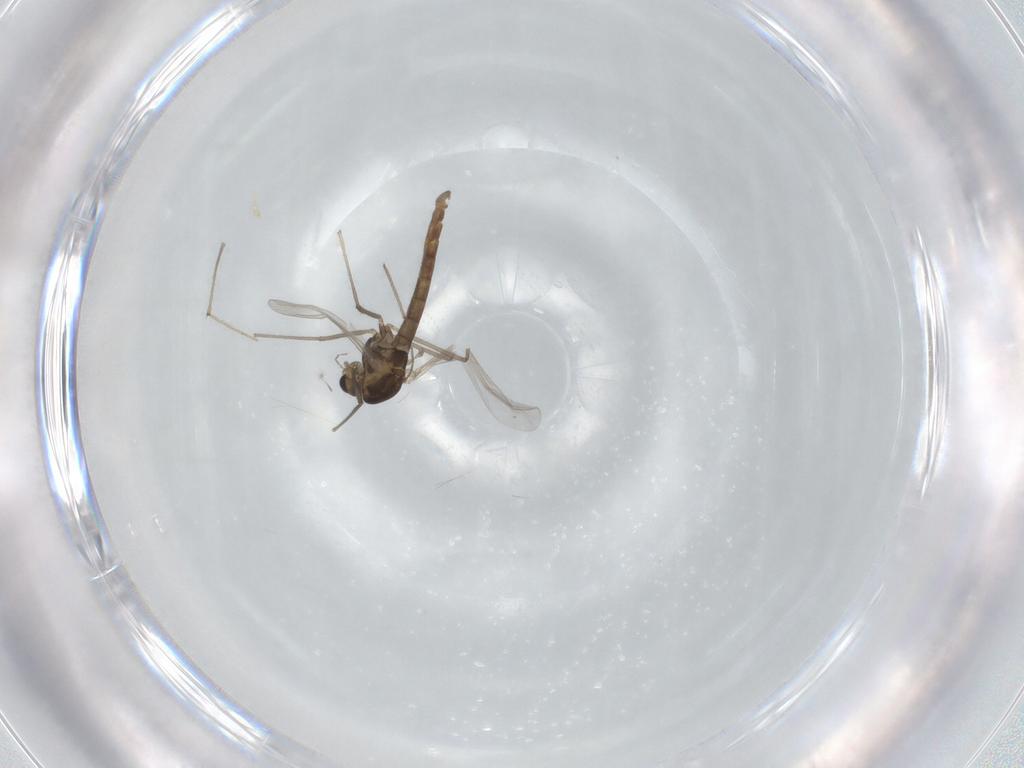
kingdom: Animalia
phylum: Arthropoda
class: Insecta
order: Diptera
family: Chironomidae
